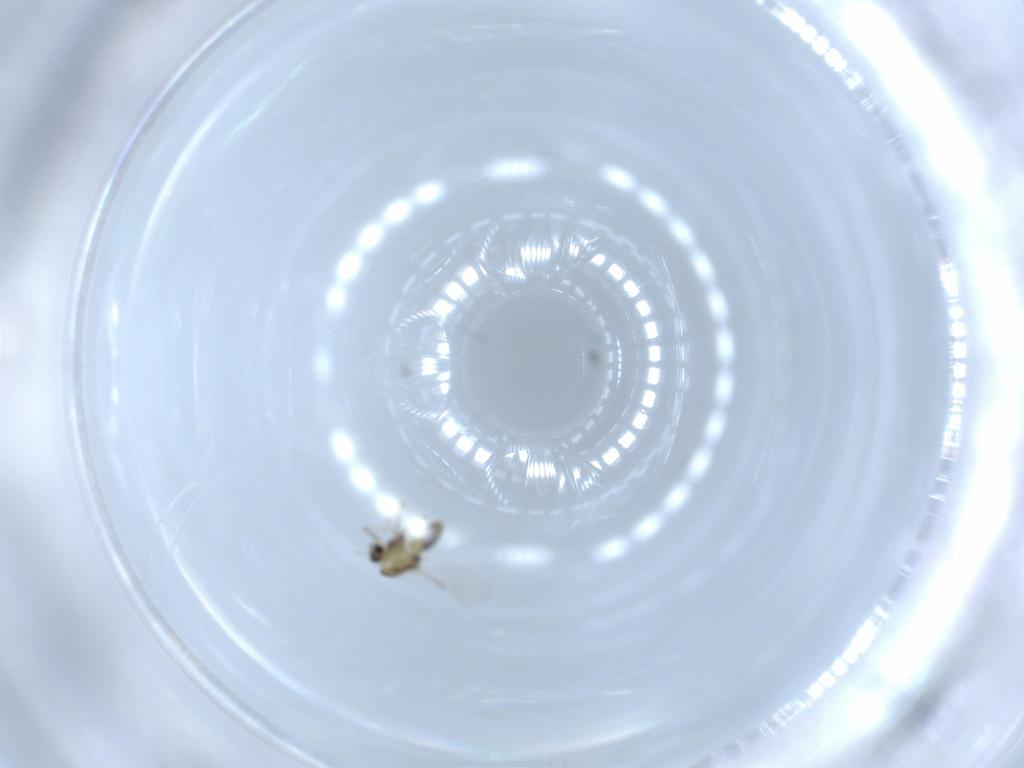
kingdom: Animalia
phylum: Arthropoda
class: Insecta
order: Diptera
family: Chironomidae
